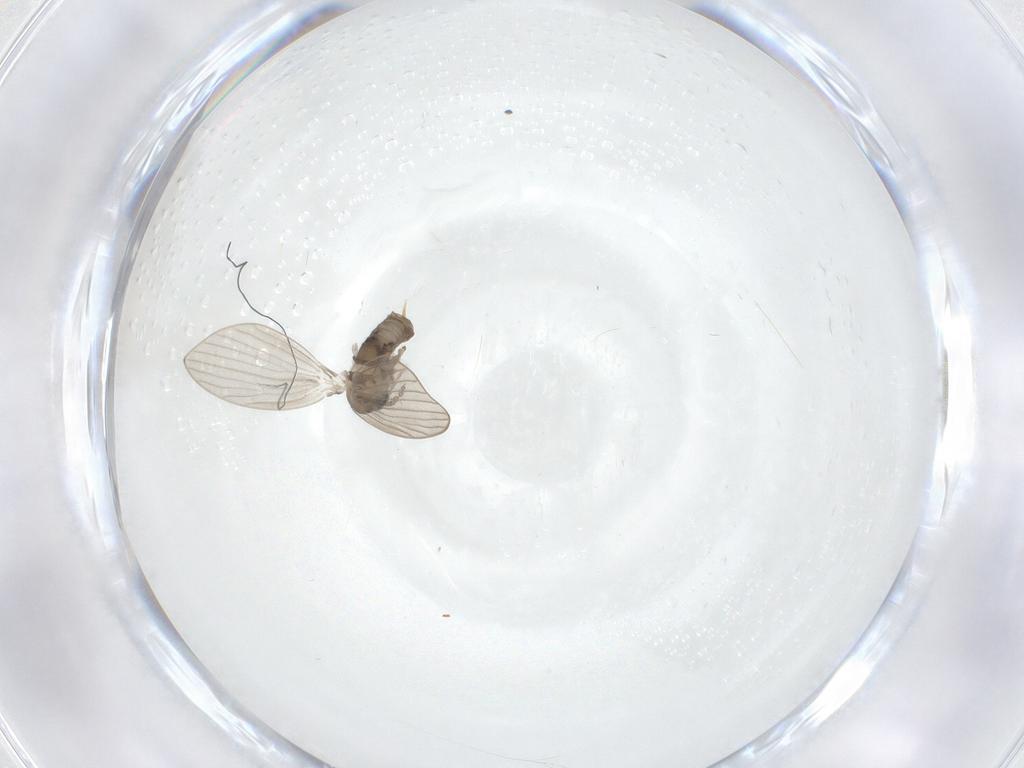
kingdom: Animalia
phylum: Arthropoda
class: Insecta
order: Diptera
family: Psychodidae
